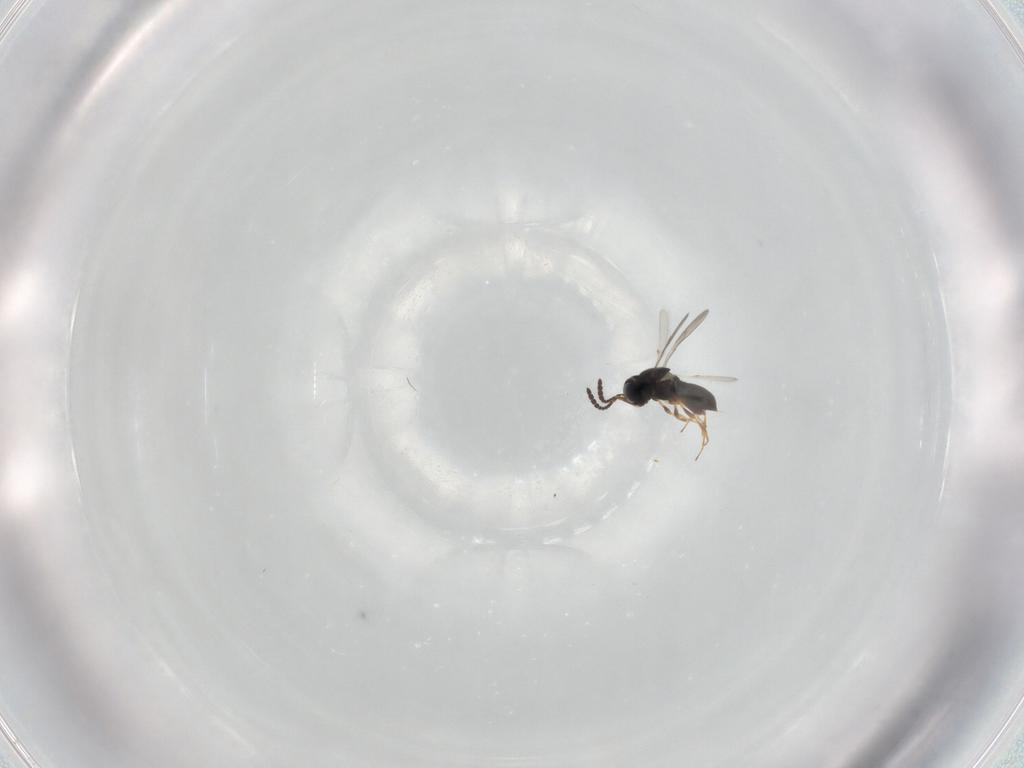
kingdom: Animalia
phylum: Arthropoda
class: Insecta
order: Hymenoptera
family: Scelionidae
